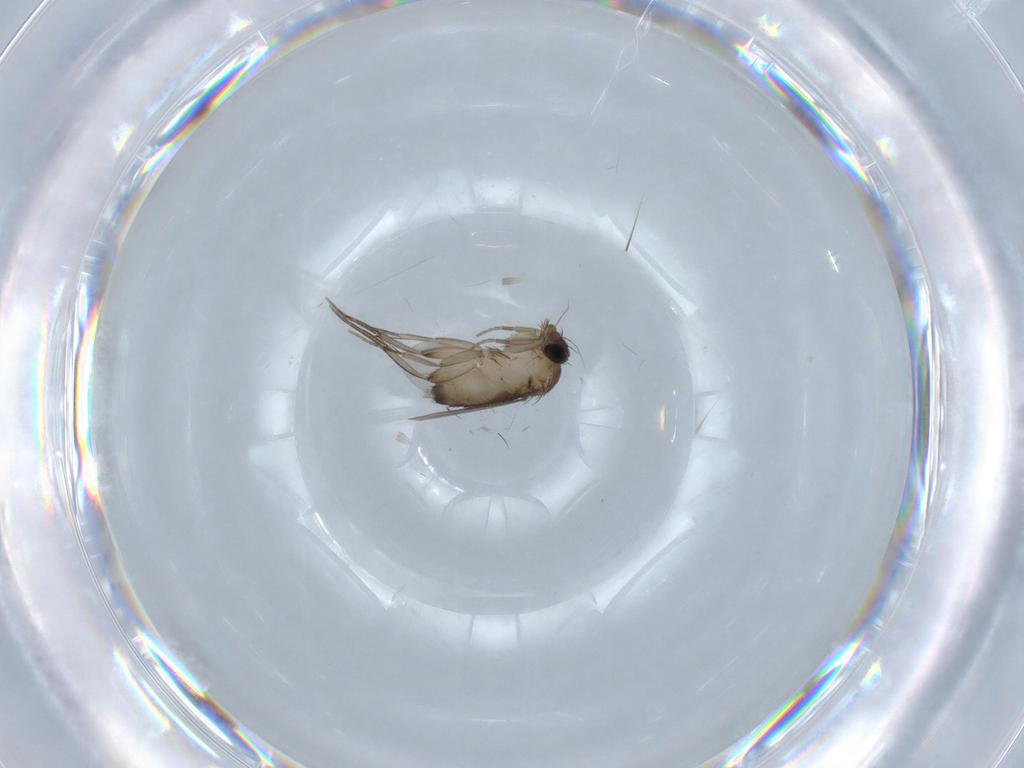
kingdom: Animalia
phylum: Arthropoda
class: Insecta
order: Diptera
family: Phoridae
